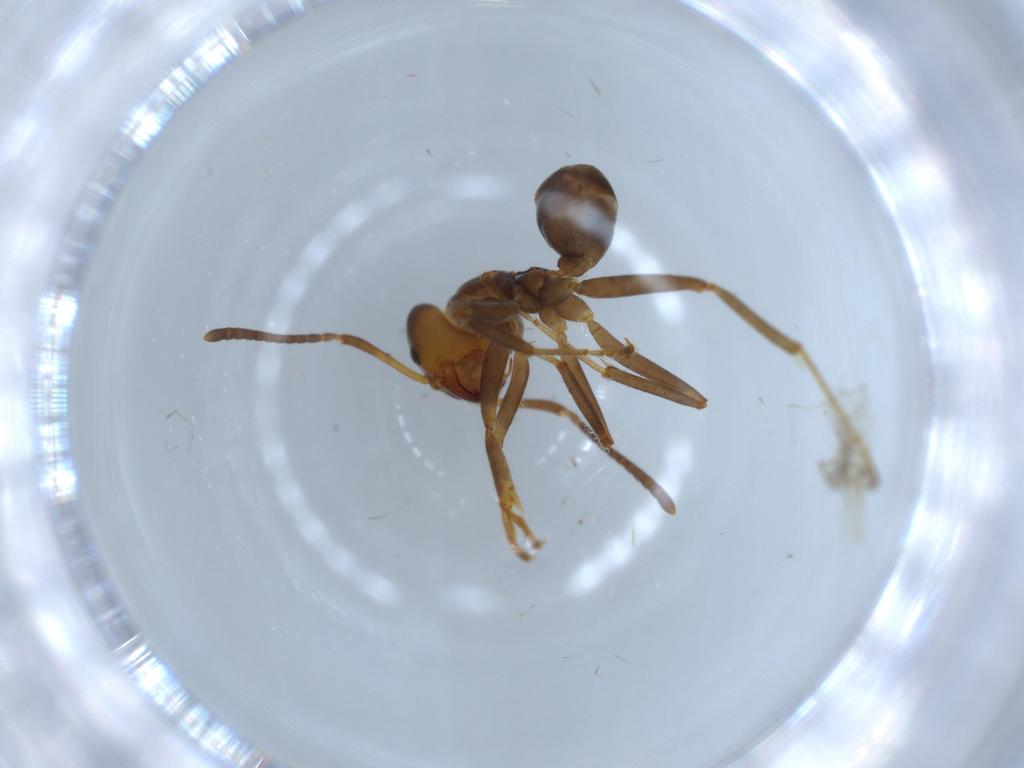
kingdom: Animalia
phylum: Arthropoda
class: Insecta
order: Hymenoptera
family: Formicidae
